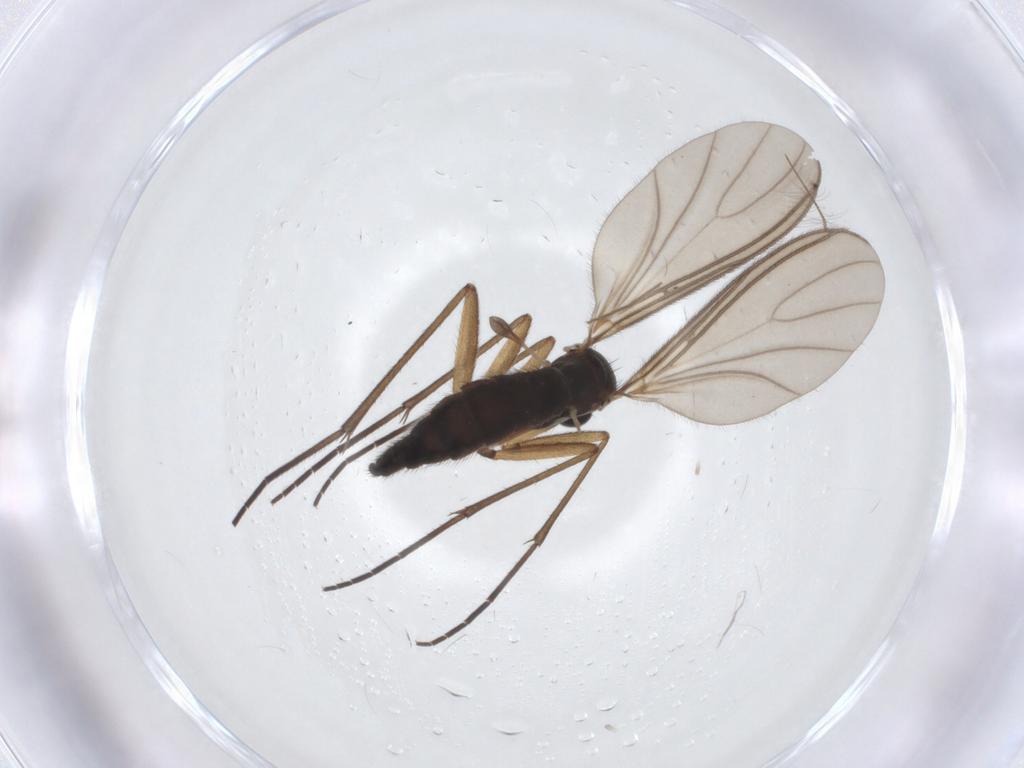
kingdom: Animalia
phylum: Arthropoda
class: Insecta
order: Diptera
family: Sciaridae
